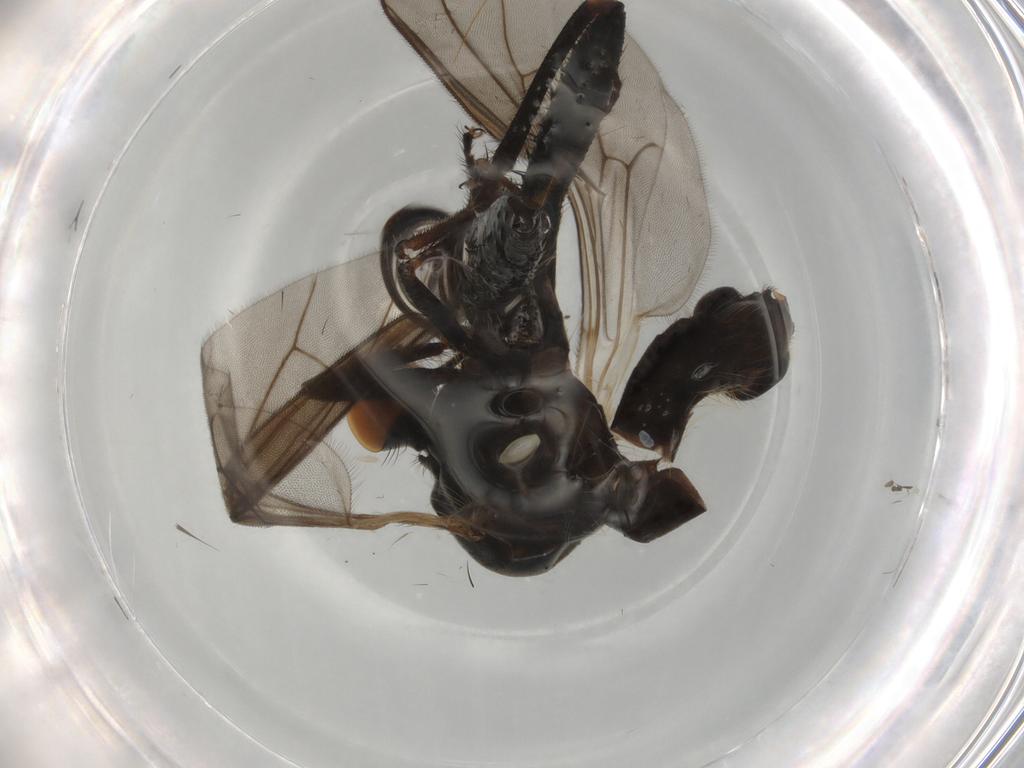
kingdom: Animalia
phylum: Arthropoda
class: Insecta
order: Diptera
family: Hybotidae
